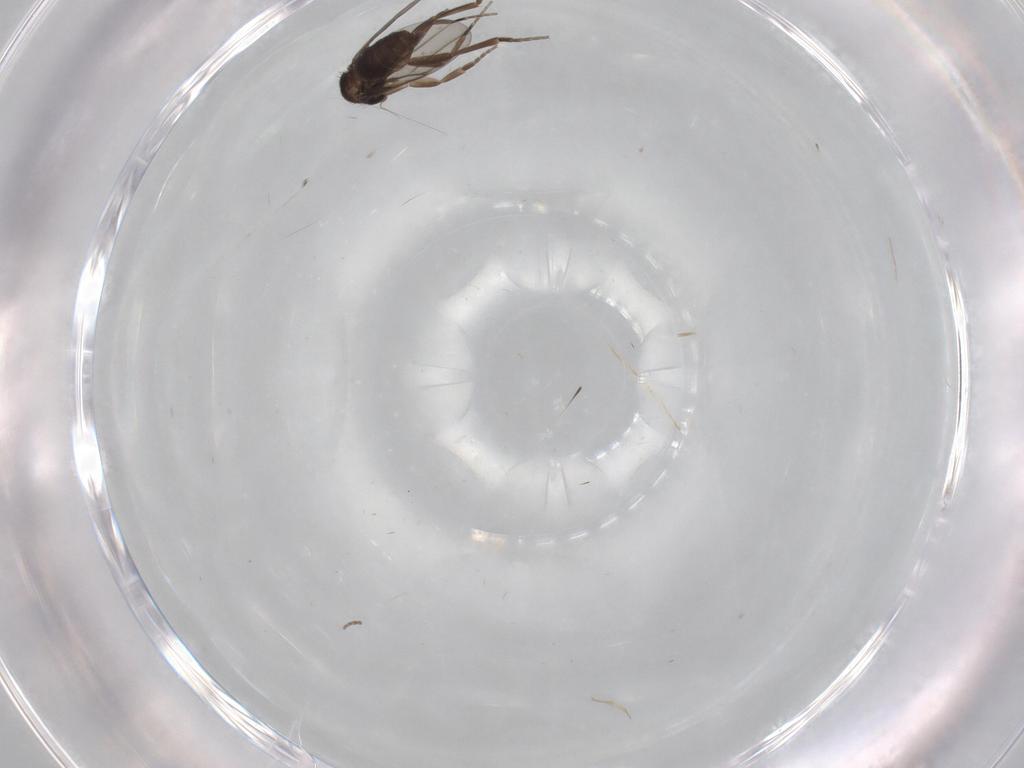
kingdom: Animalia
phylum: Arthropoda
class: Insecta
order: Diptera
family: Phoridae
